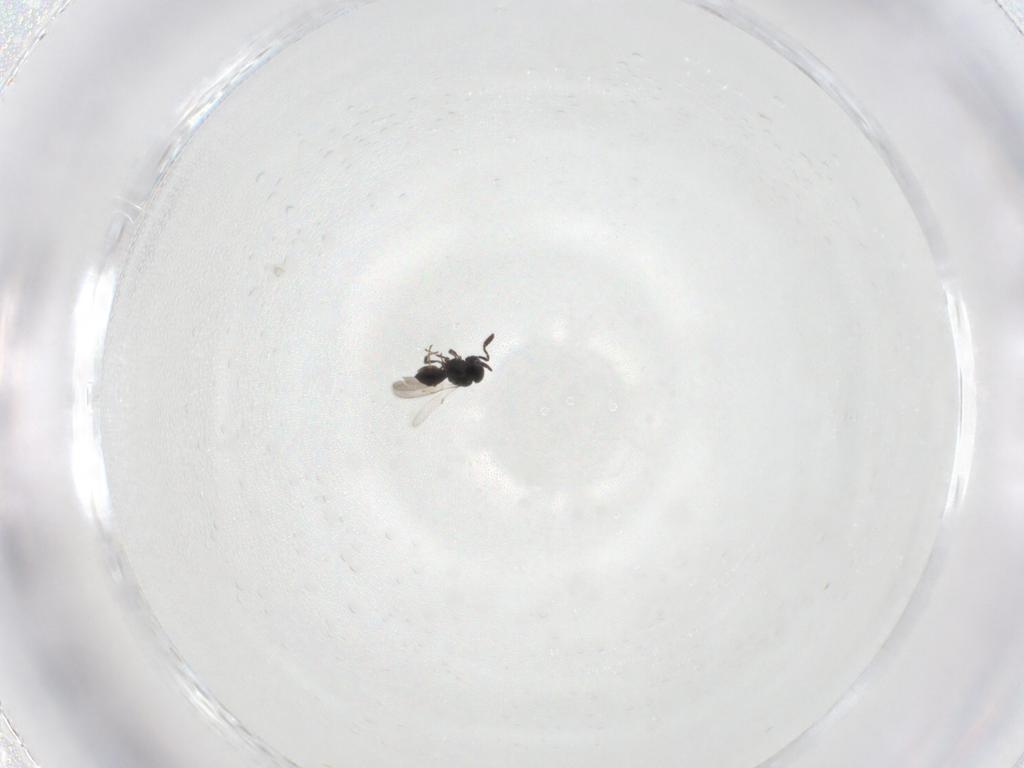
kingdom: Animalia
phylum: Arthropoda
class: Insecta
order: Hymenoptera
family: Scelionidae
